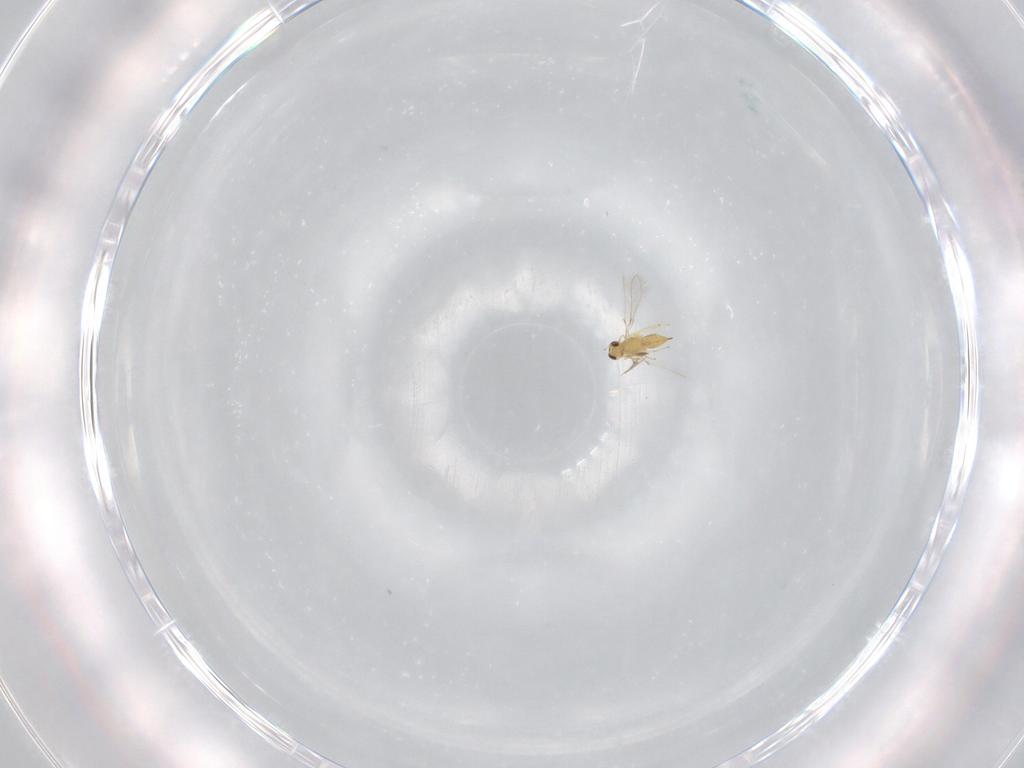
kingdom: Animalia
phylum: Arthropoda
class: Insecta
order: Hymenoptera
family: Mymaridae
